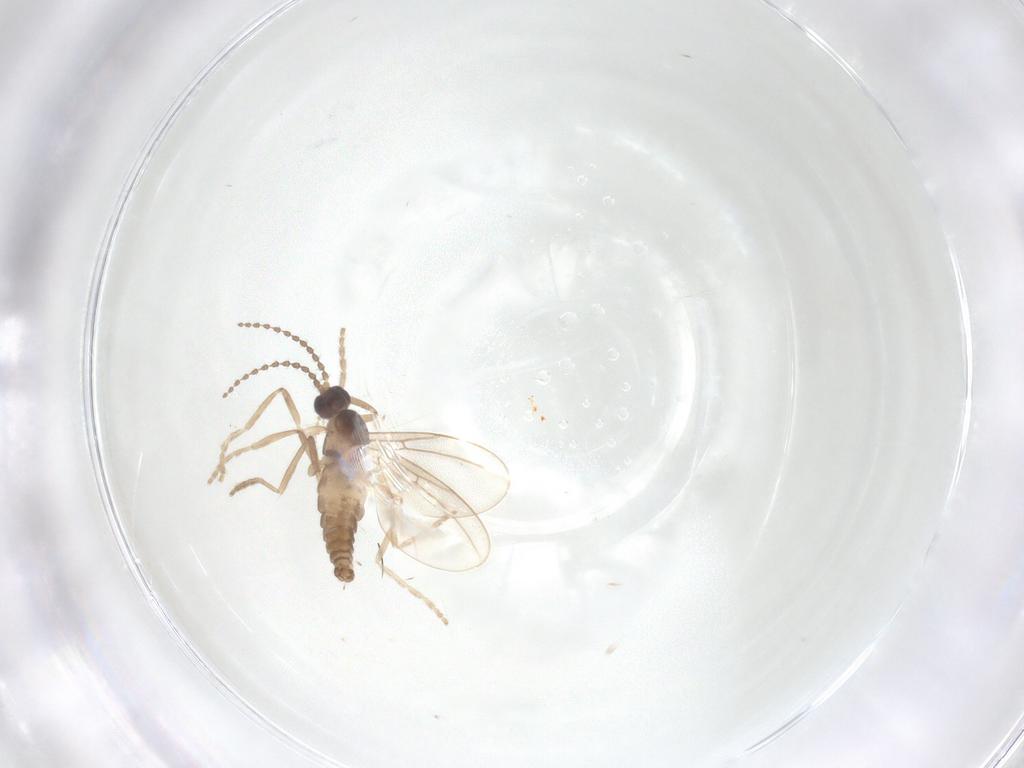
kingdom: Animalia
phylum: Arthropoda
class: Insecta
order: Diptera
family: Cecidomyiidae
